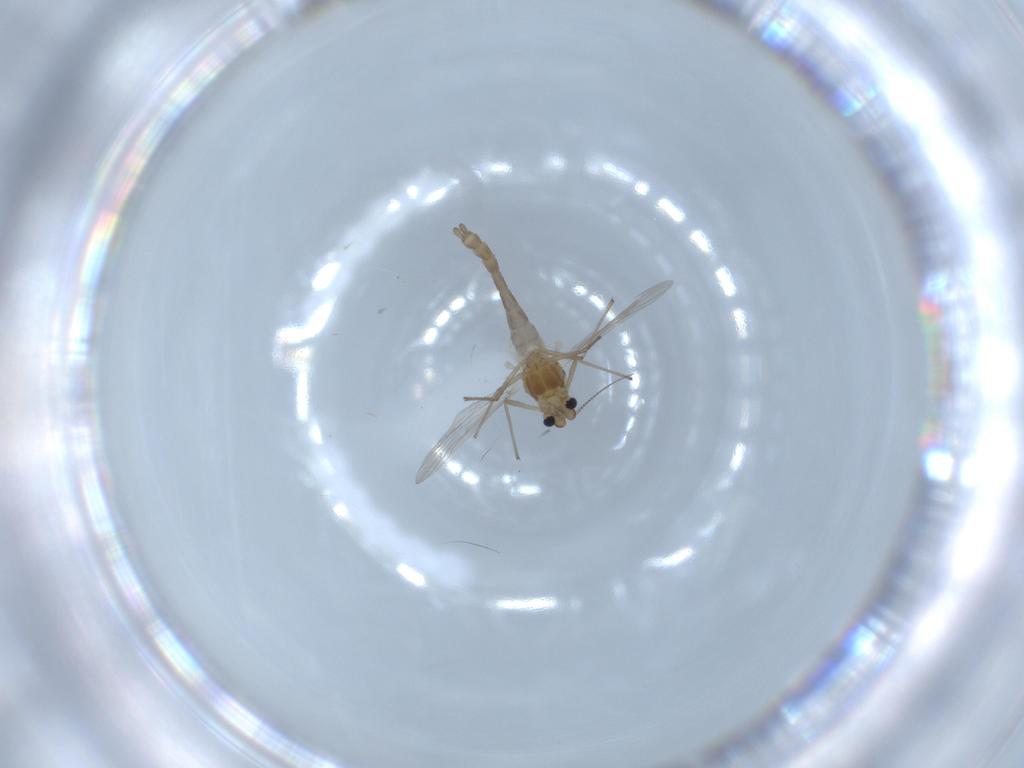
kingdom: Animalia
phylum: Arthropoda
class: Insecta
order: Diptera
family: Chironomidae
